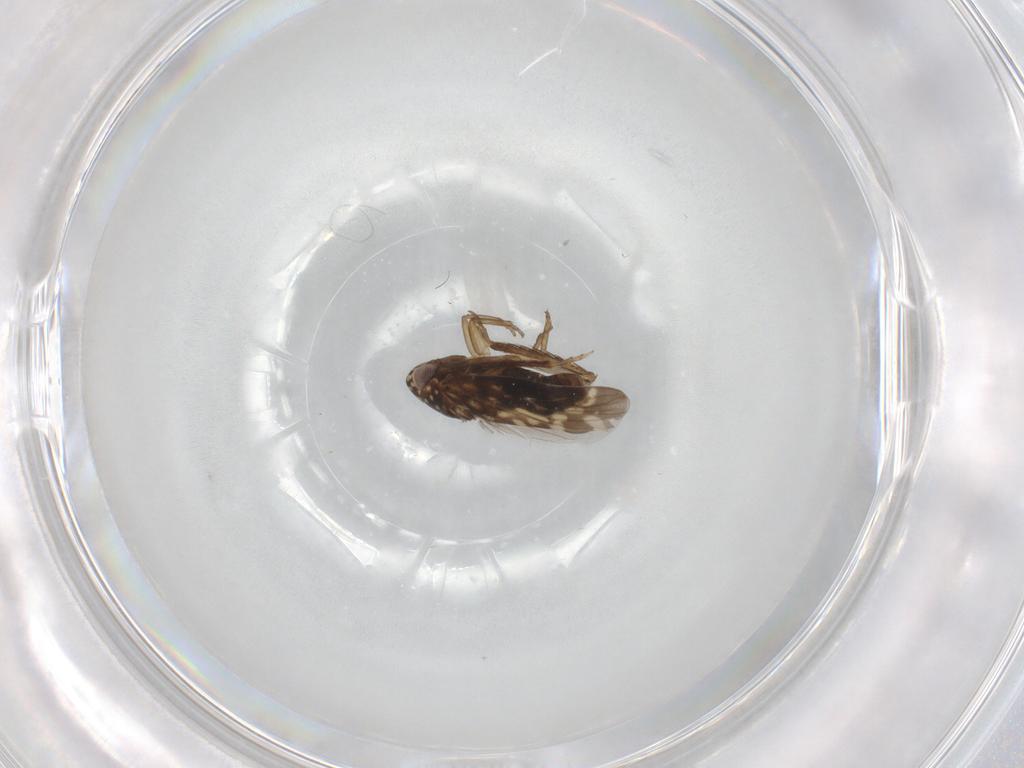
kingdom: Animalia
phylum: Arthropoda
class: Insecta
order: Hemiptera
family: Cicadellidae
